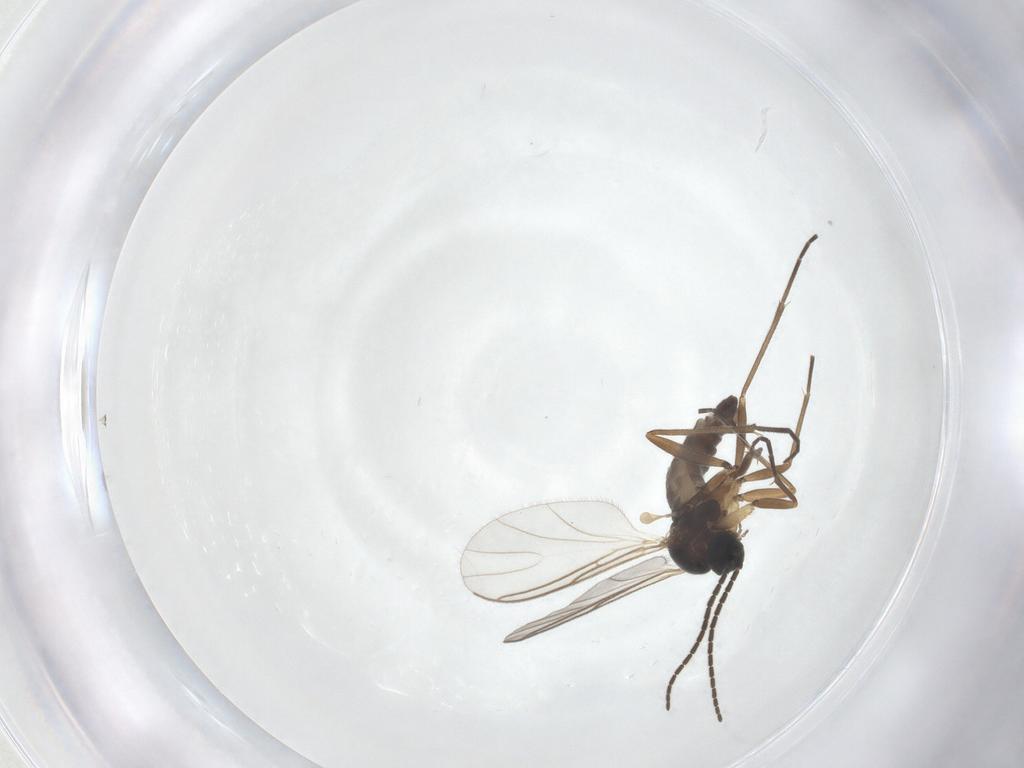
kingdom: Animalia
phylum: Arthropoda
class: Insecta
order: Diptera
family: Sciaridae
